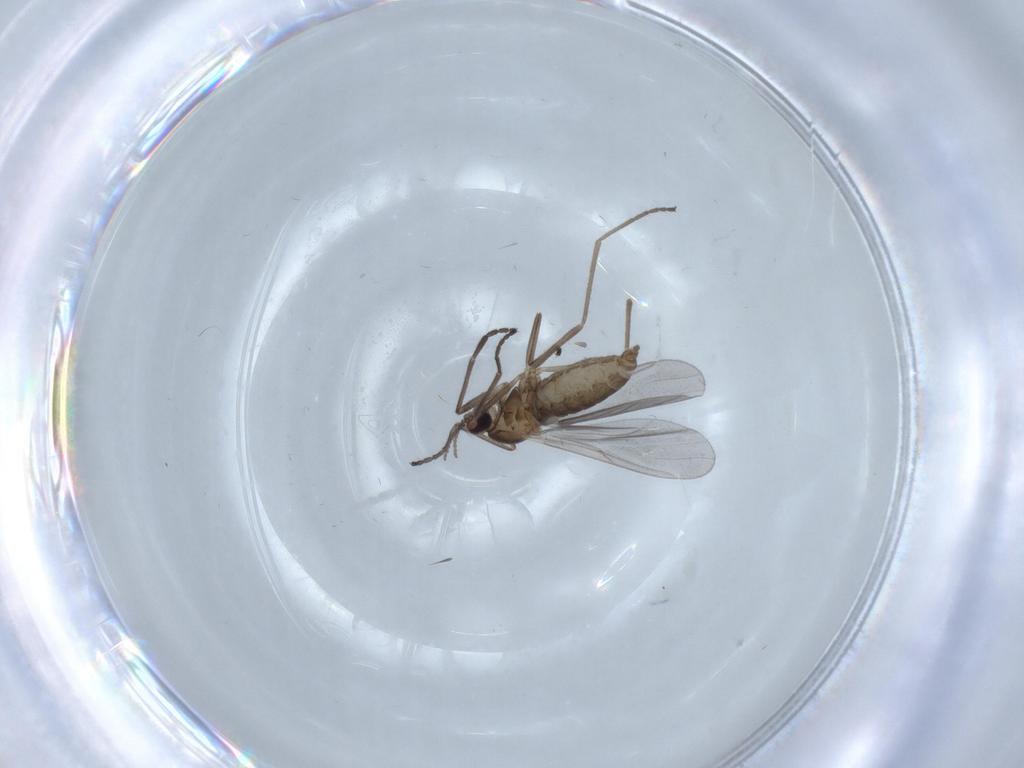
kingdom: Animalia
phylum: Arthropoda
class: Insecta
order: Diptera
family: Cecidomyiidae
